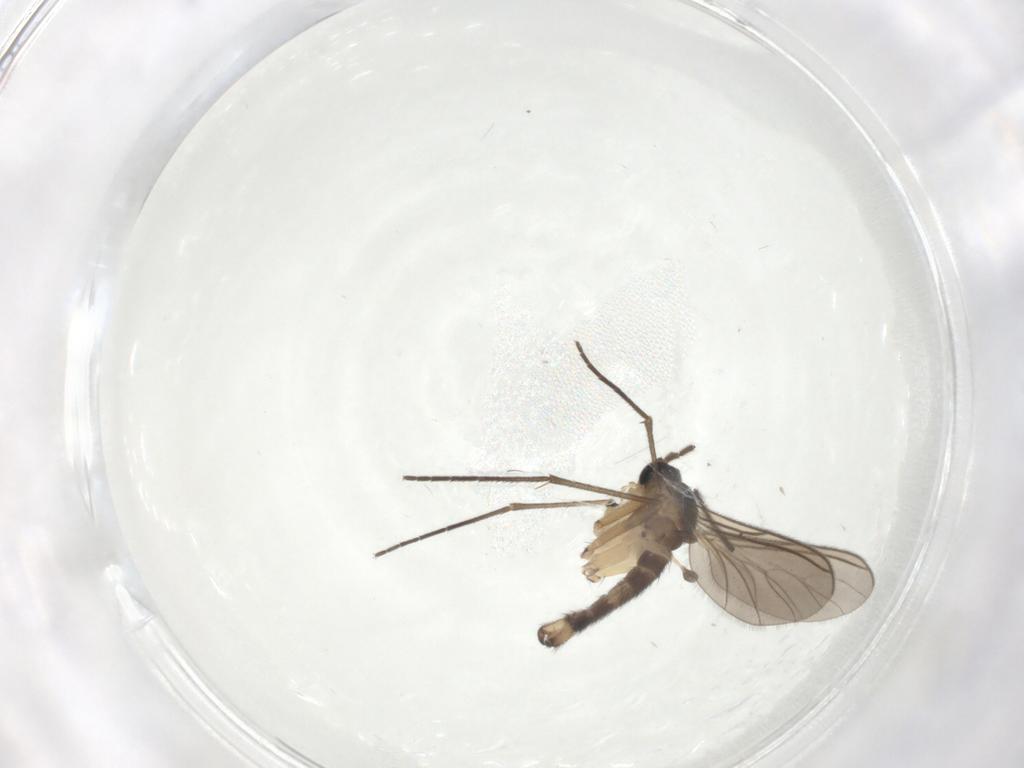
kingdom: Animalia
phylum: Arthropoda
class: Insecta
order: Diptera
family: Sciaridae
